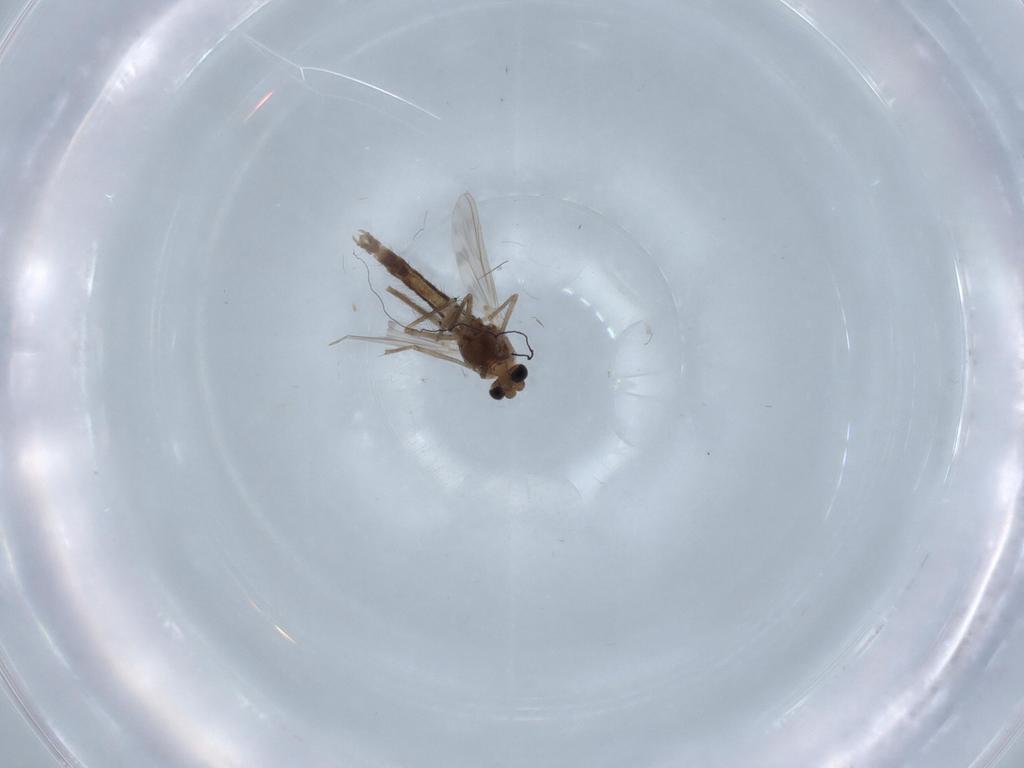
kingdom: Animalia
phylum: Arthropoda
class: Insecta
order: Diptera
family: Chironomidae
